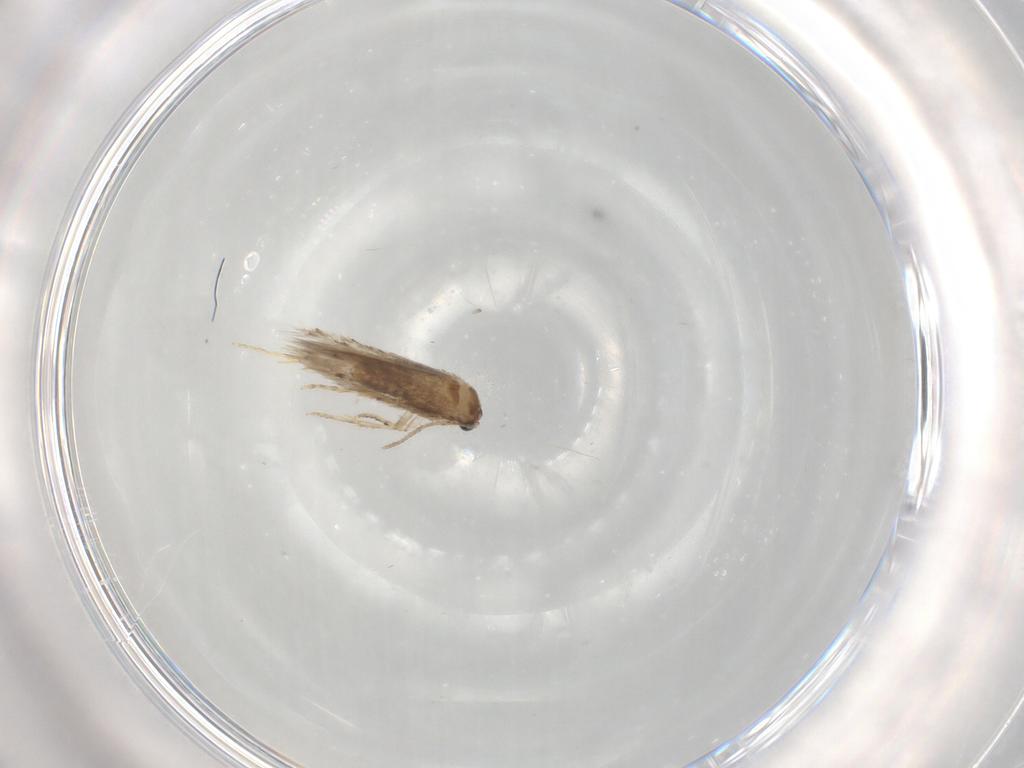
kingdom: Animalia
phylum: Arthropoda
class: Insecta
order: Lepidoptera
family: Nepticulidae
